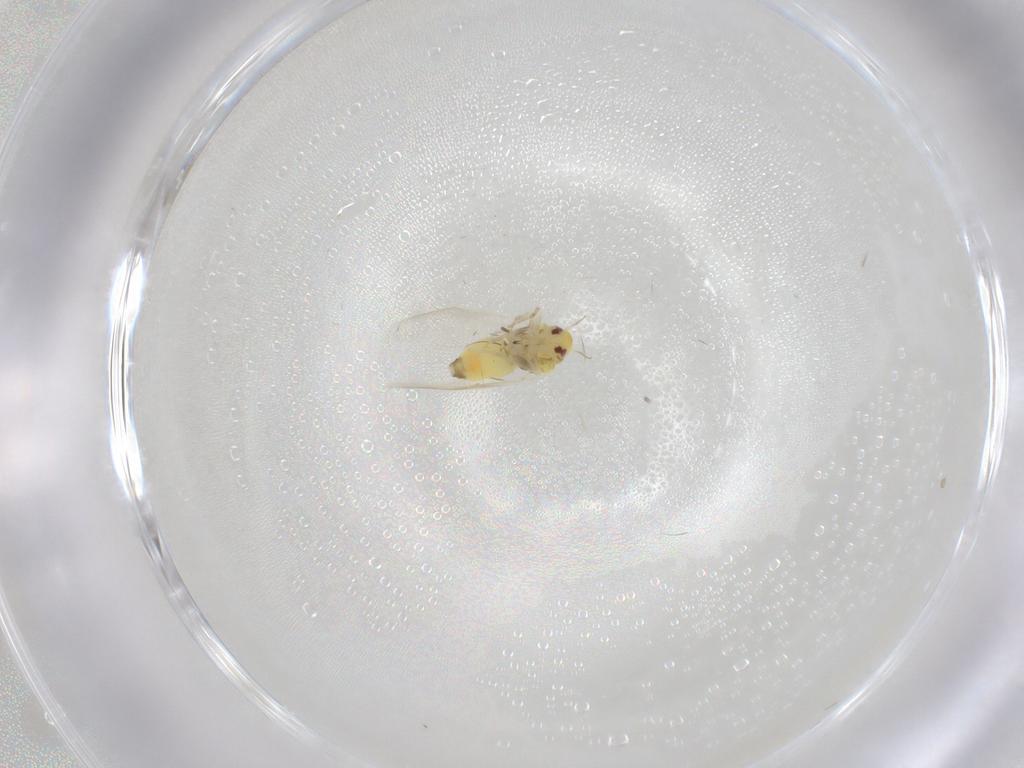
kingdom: Animalia
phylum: Arthropoda
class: Insecta
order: Hemiptera
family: Aleyrodidae
